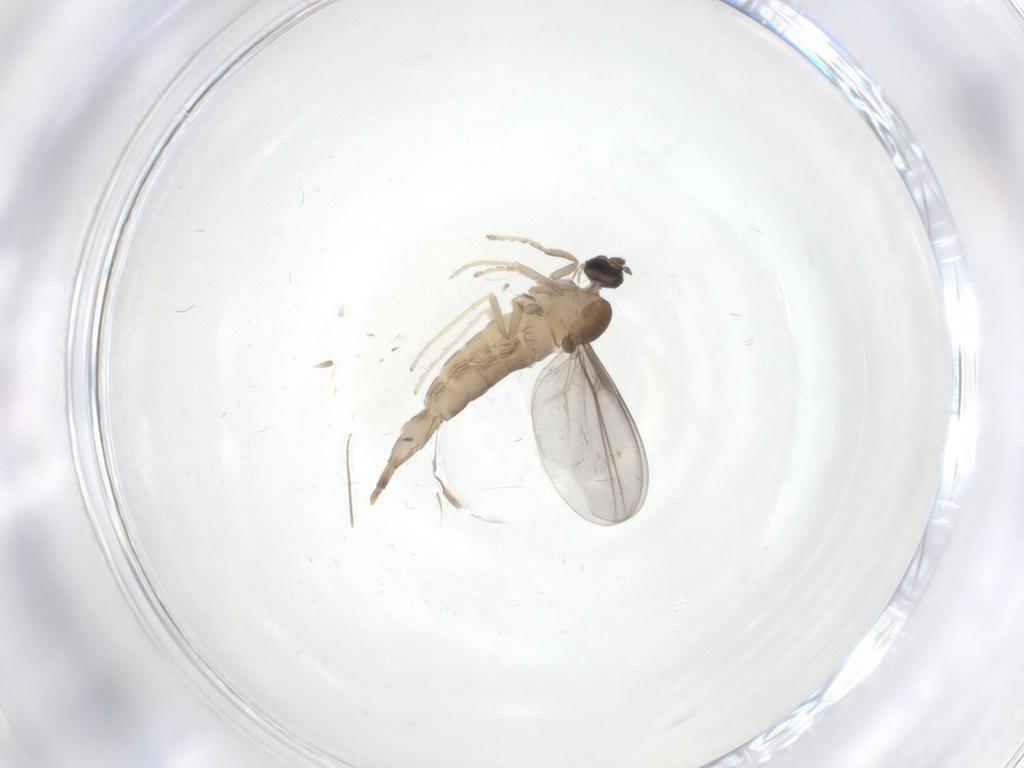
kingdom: Animalia
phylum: Arthropoda
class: Insecta
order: Diptera
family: Cecidomyiidae
